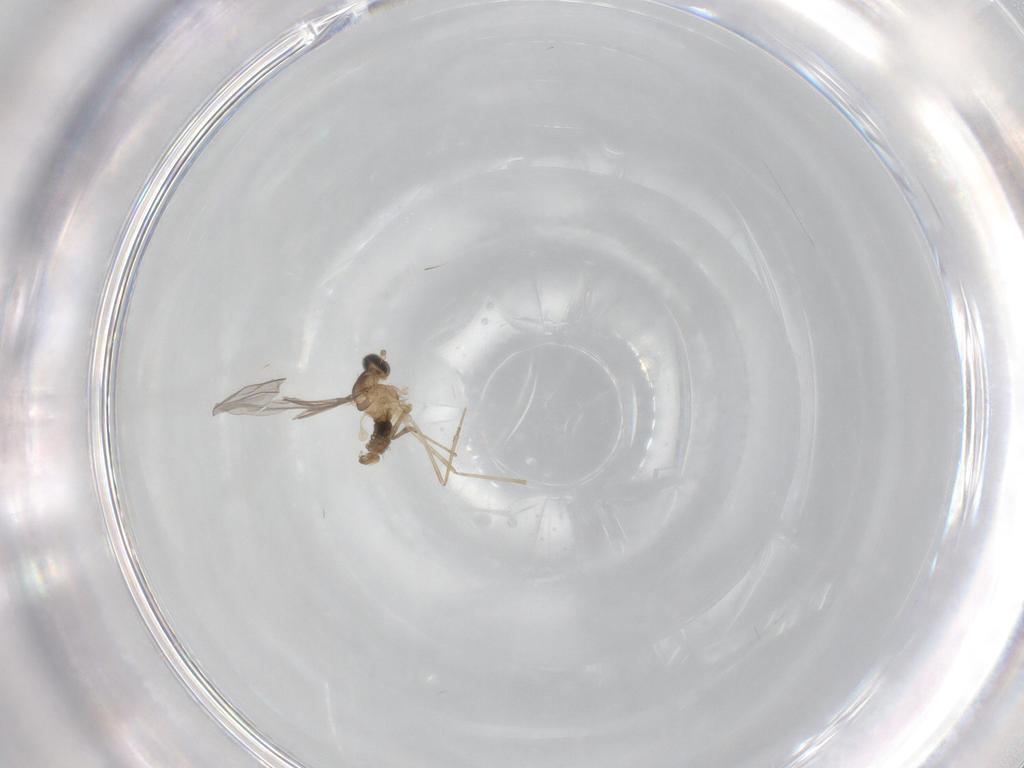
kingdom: Animalia
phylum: Arthropoda
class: Insecta
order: Diptera
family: Cecidomyiidae
